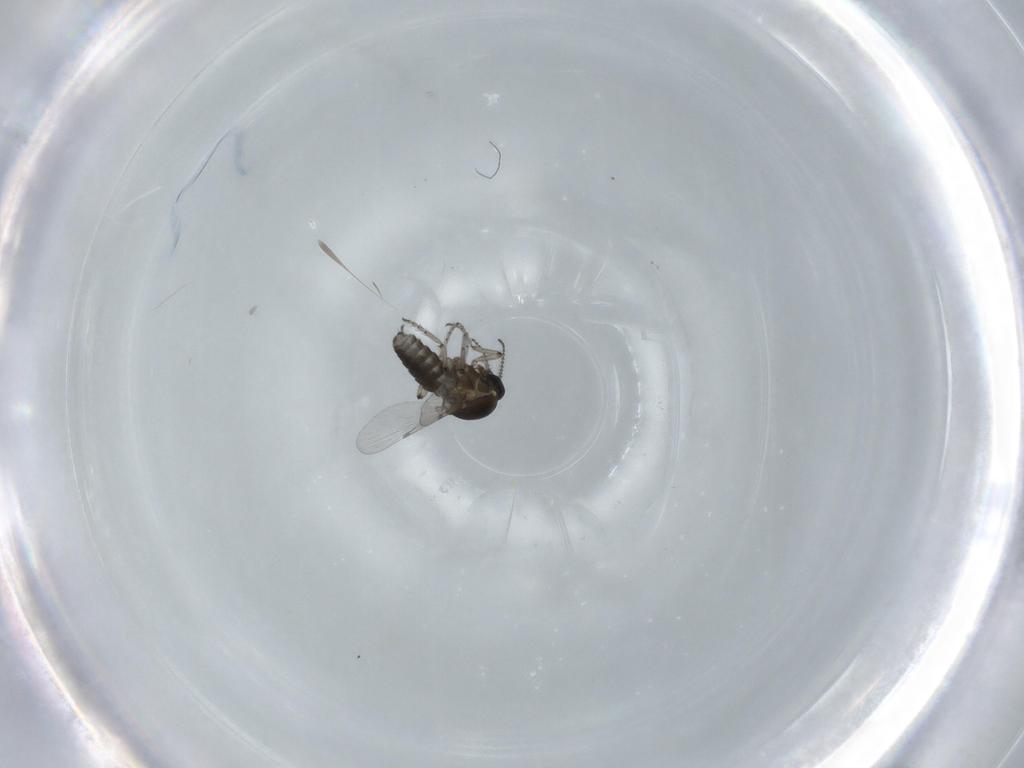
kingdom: Animalia
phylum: Arthropoda
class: Insecta
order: Diptera
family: Ceratopogonidae
